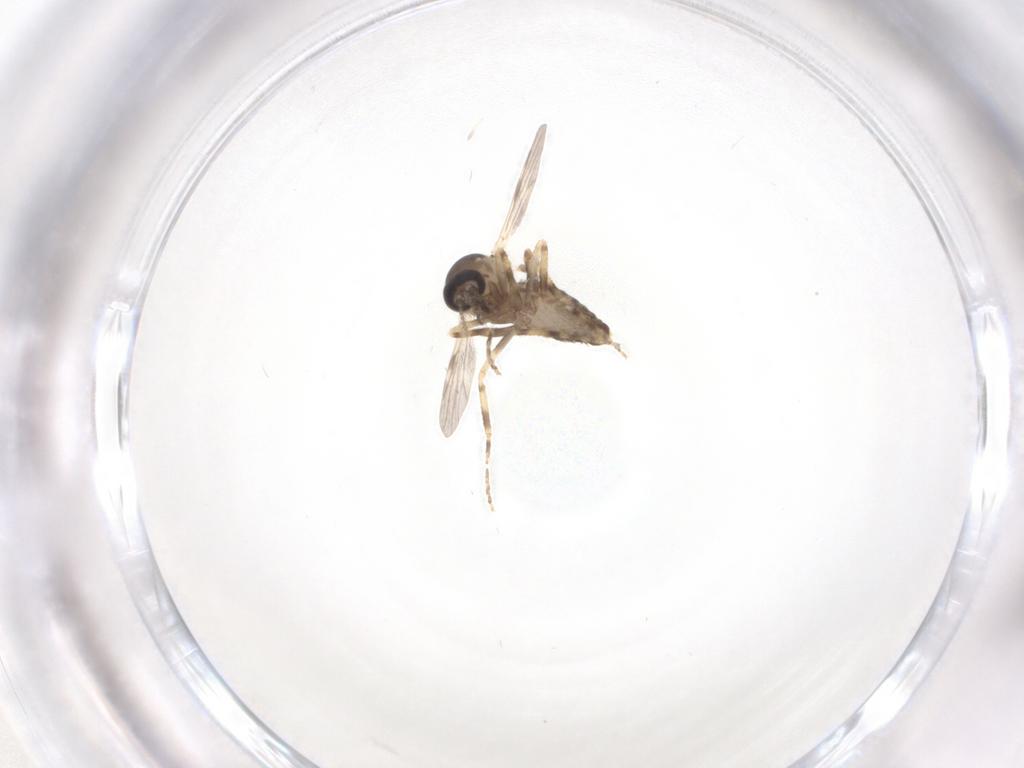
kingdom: Animalia
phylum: Arthropoda
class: Insecta
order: Diptera
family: Ceratopogonidae
